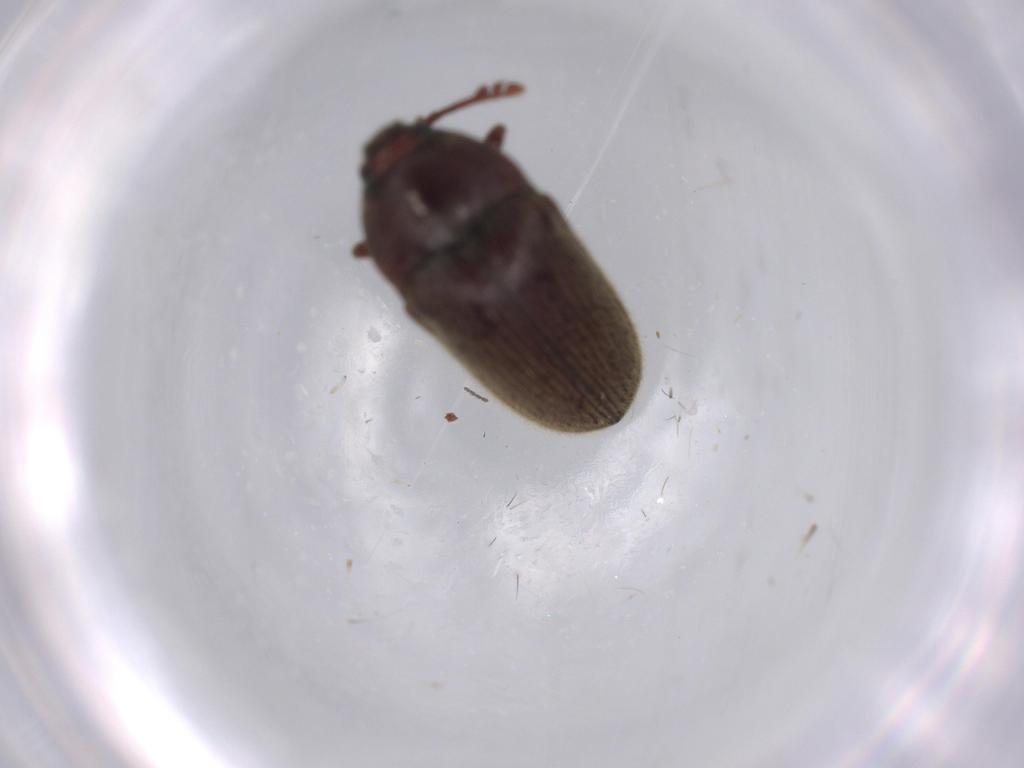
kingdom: Animalia
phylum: Arthropoda
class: Insecta
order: Coleoptera
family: Throscidae
